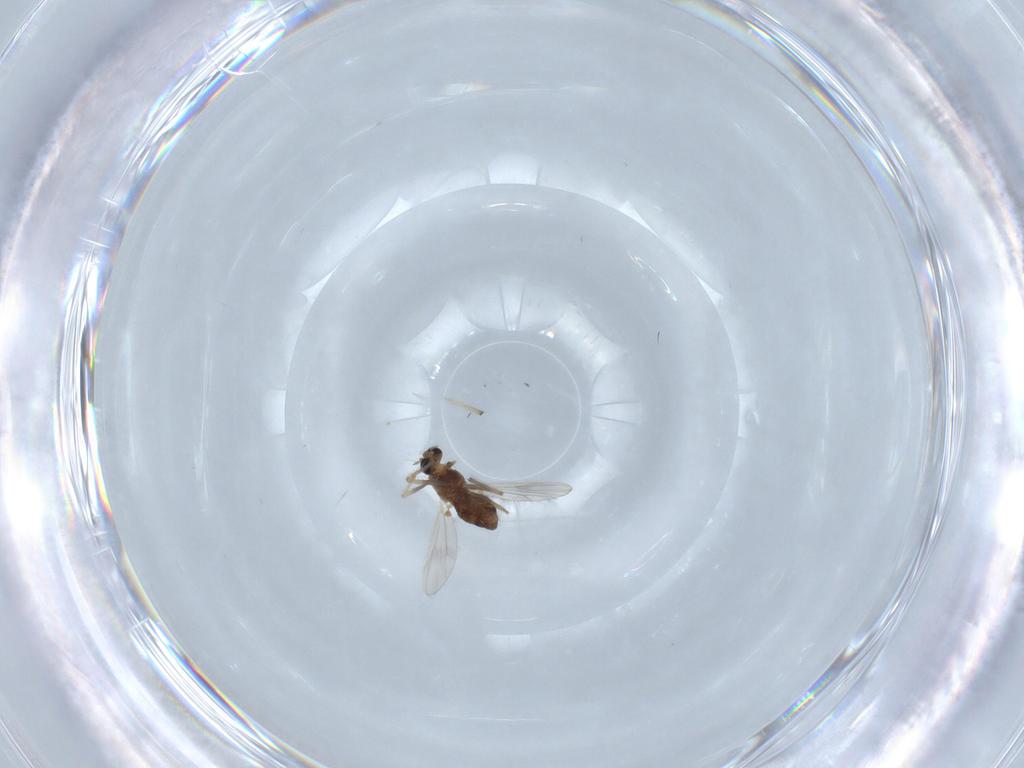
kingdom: Animalia
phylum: Arthropoda
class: Insecta
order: Diptera
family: Chironomidae
